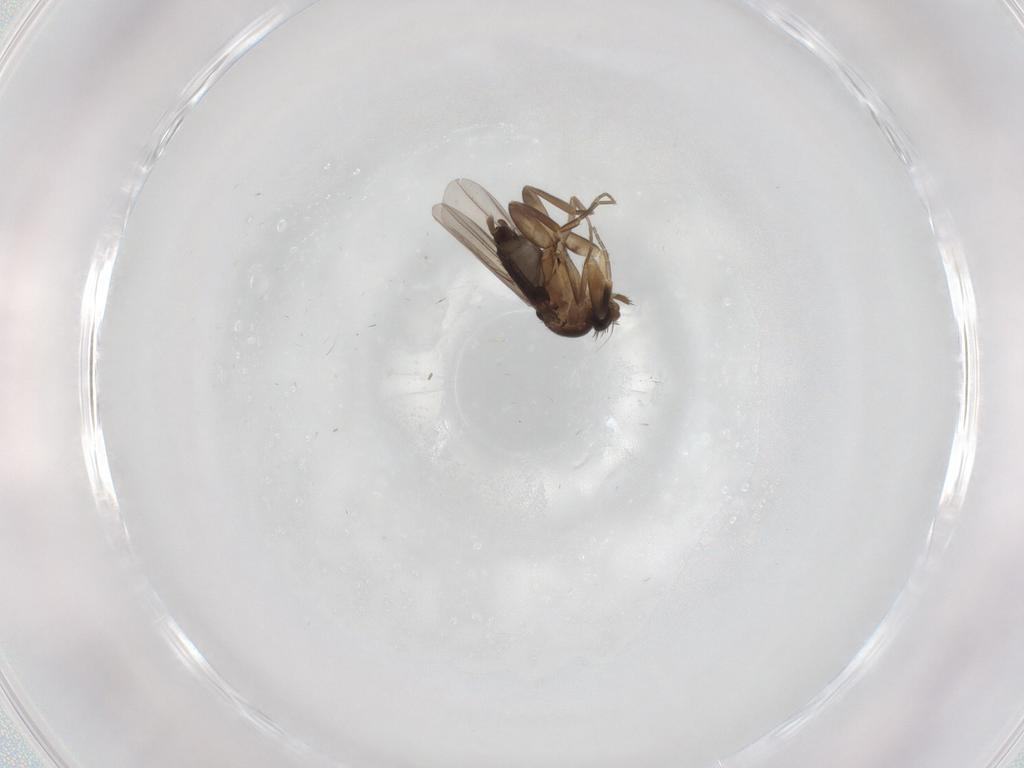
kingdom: Animalia
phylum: Arthropoda
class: Insecta
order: Diptera
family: Phoridae
